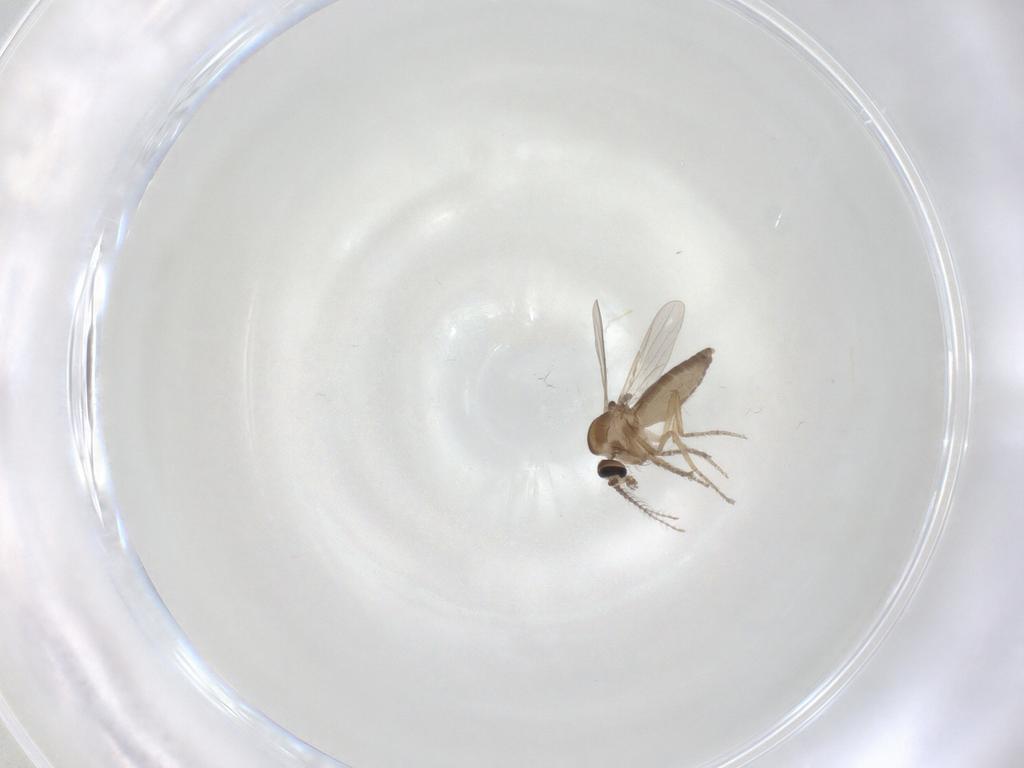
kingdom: Animalia
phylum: Arthropoda
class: Insecta
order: Diptera
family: Ceratopogonidae
